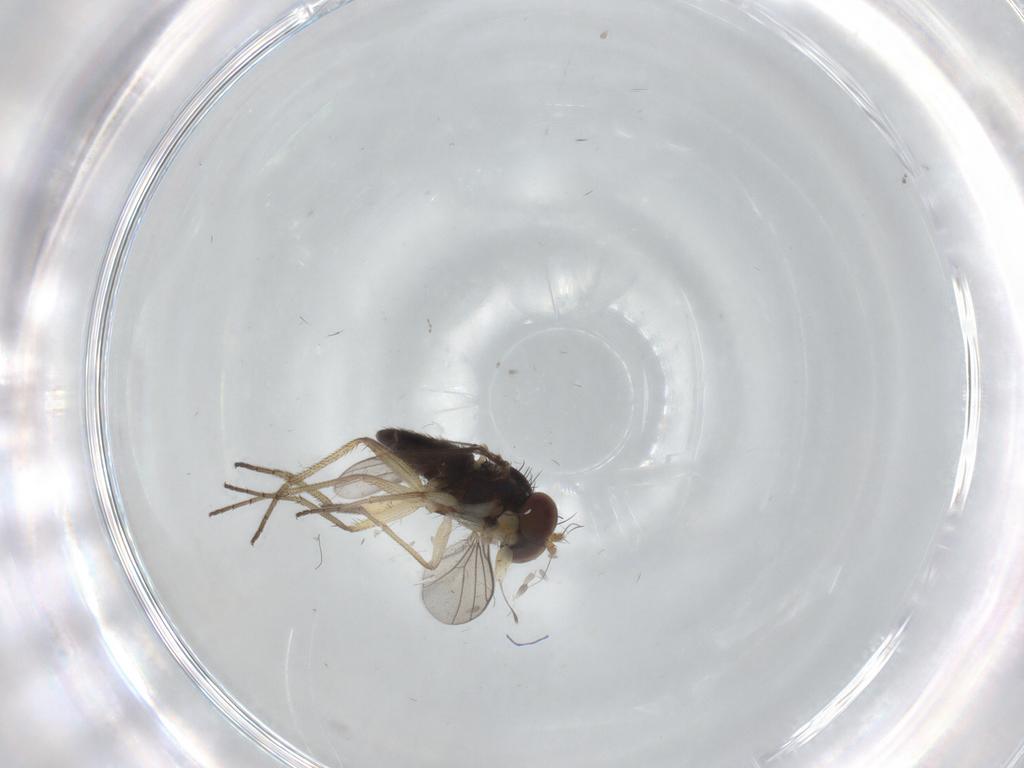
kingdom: Animalia
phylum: Arthropoda
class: Insecta
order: Diptera
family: Dolichopodidae
